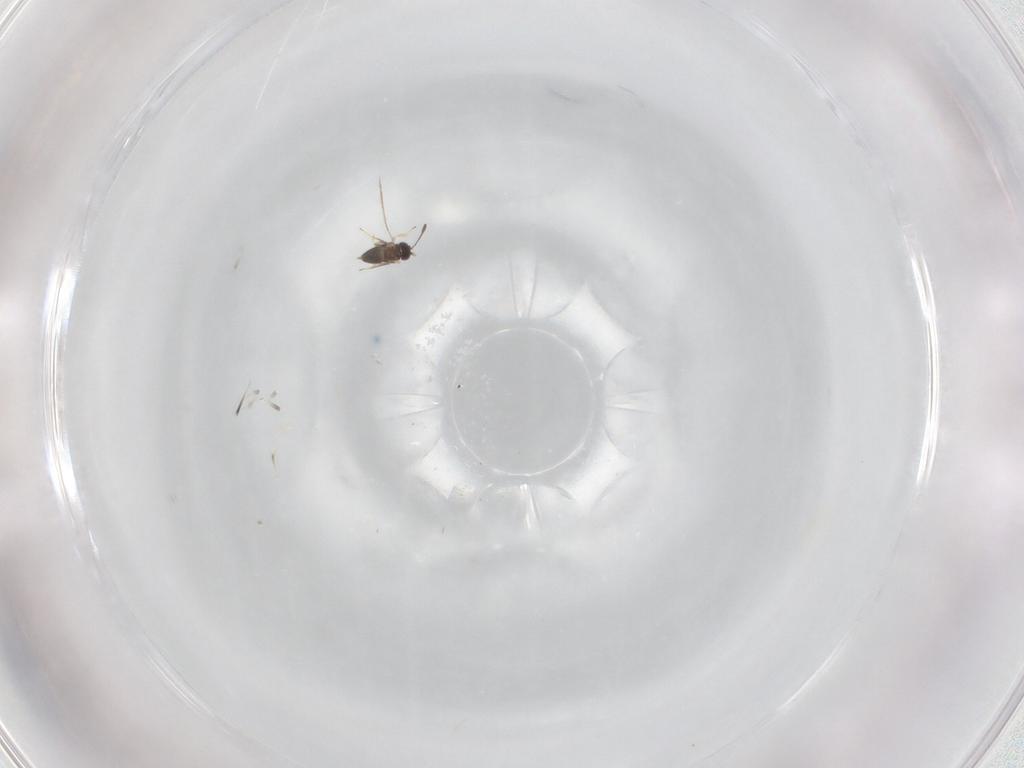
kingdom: Animalia
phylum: Arthropoda
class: Insecta
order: Hymenoptera
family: Mymaridae
